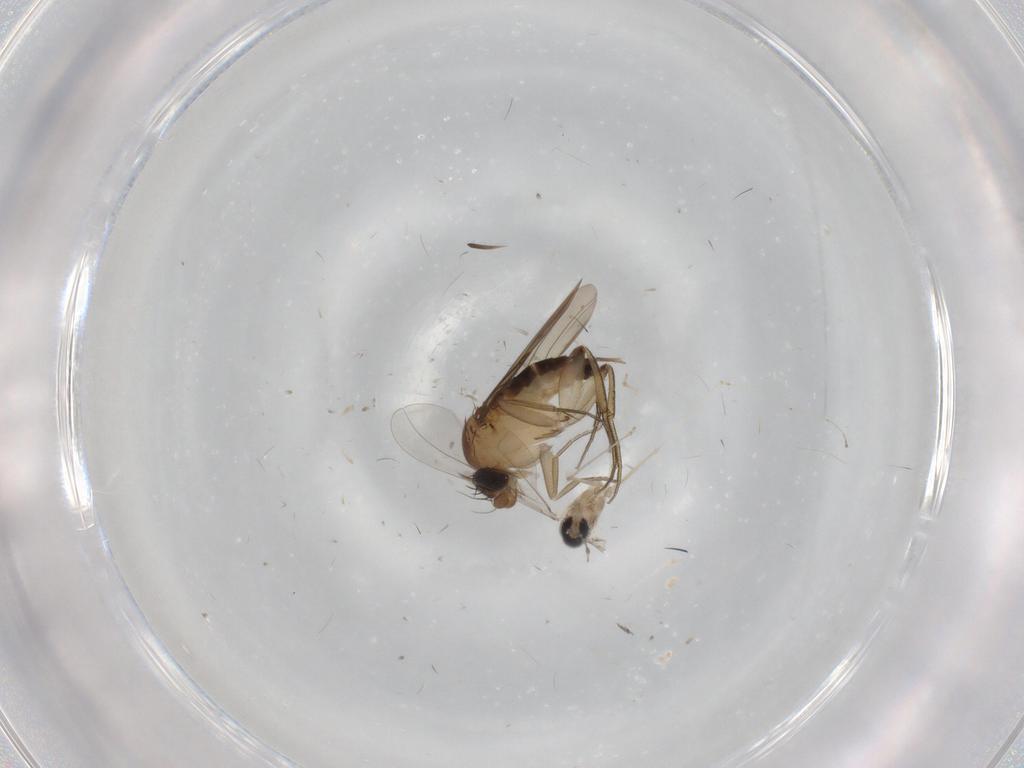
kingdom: Animalia
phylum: Arthropoda
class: Insecta
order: Diptera
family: Phoridae
